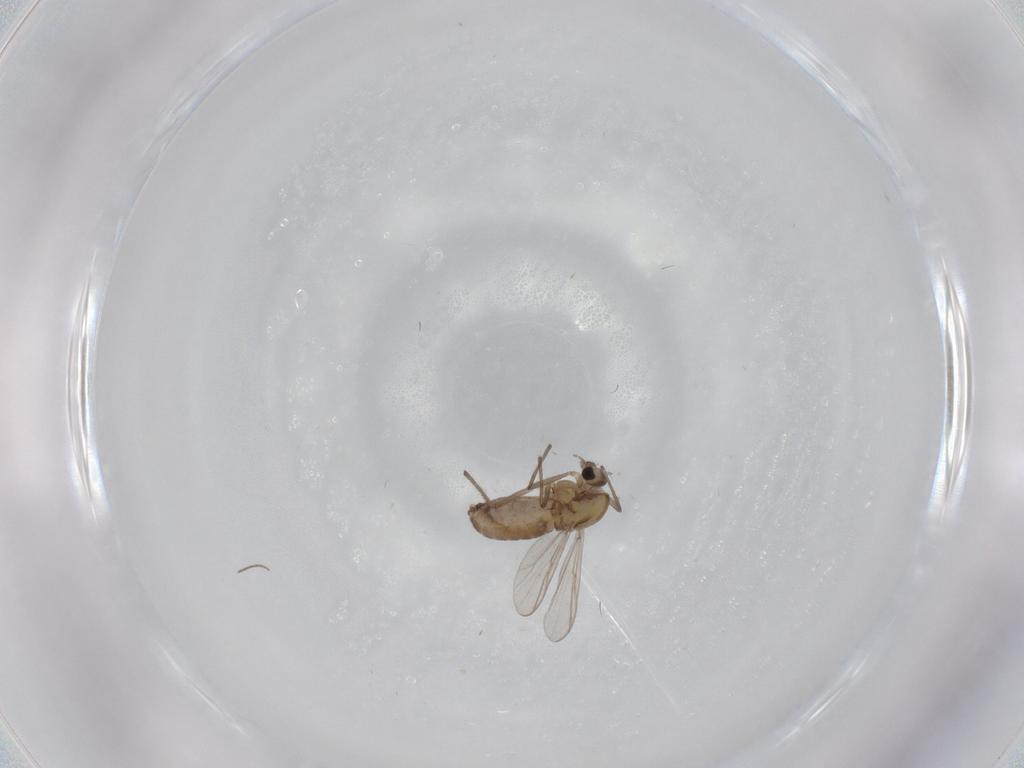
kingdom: Animalia
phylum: Arthropoda
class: Insecta
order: Diptera
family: Chironomidae
